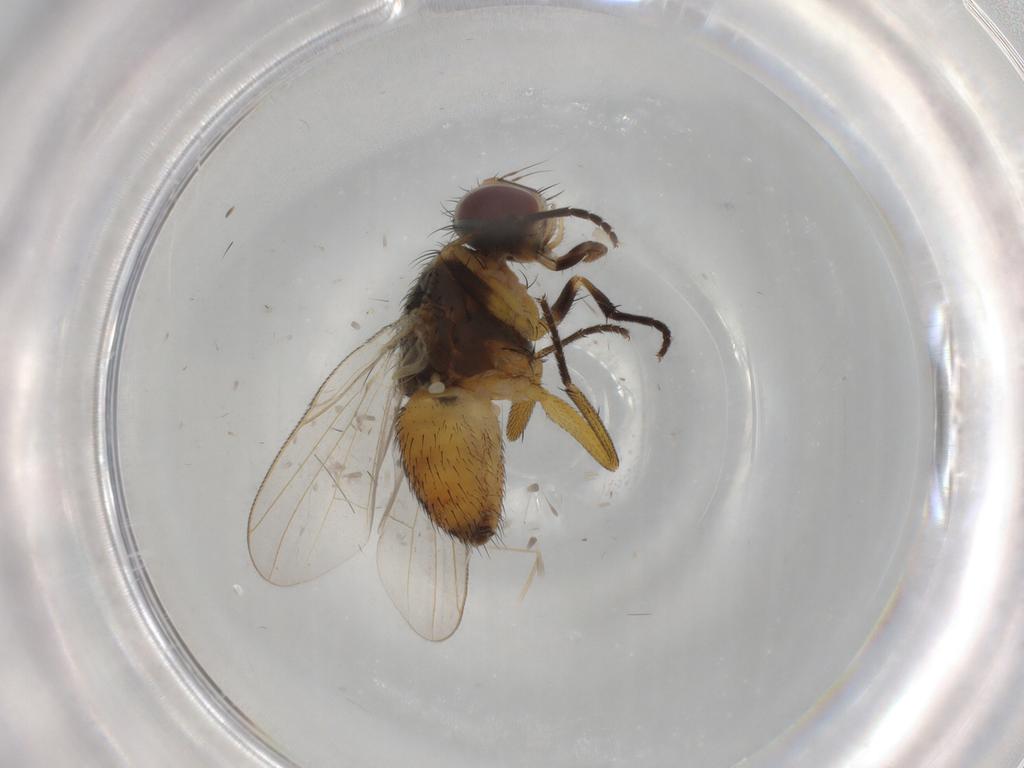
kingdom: Animalia
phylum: Arthropoda
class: Insecta
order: Diptera
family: Muscidae
